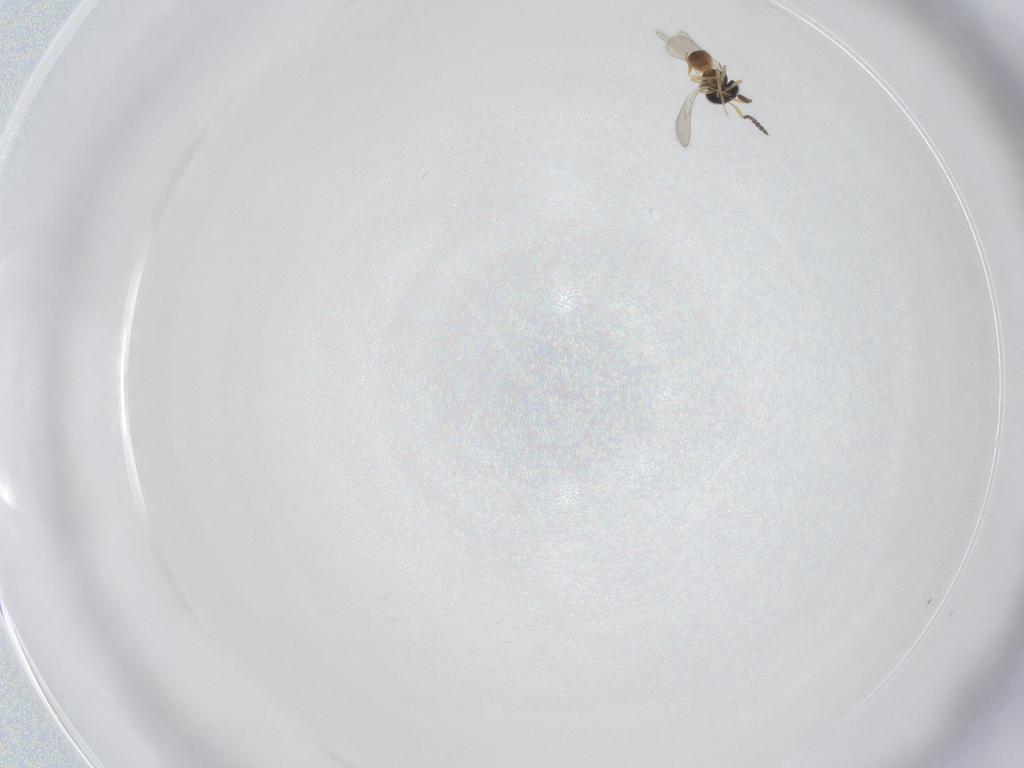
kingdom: Animalia
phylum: Arthropoda
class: Insecta
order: Hymenoptera
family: Scelionidae
